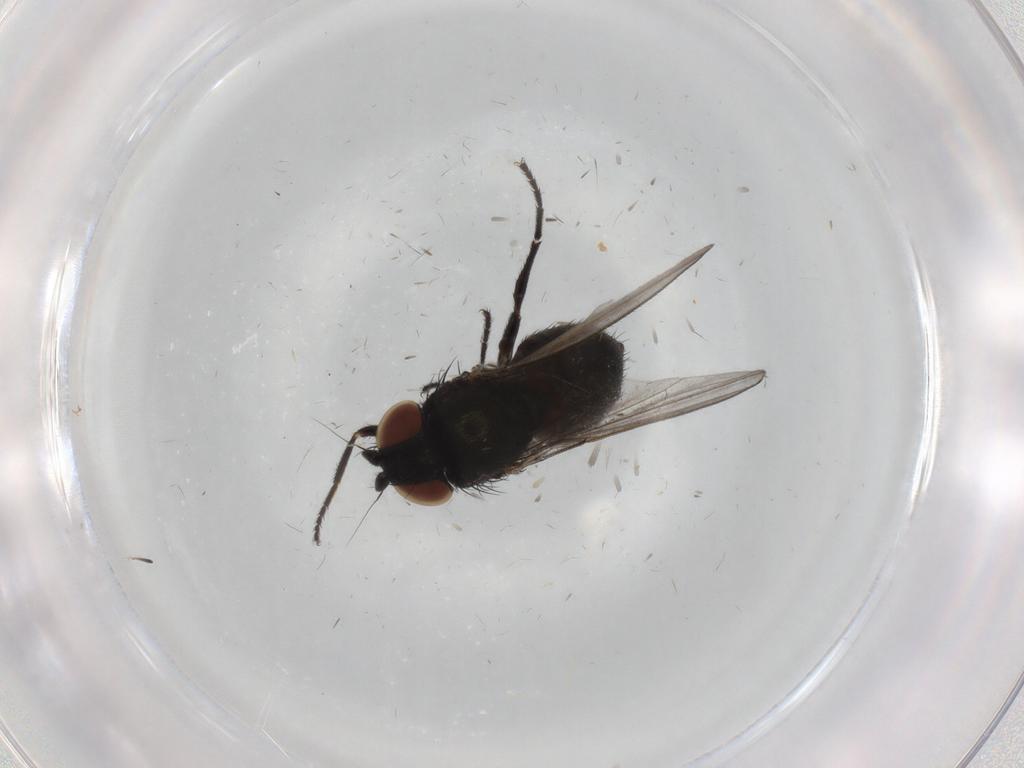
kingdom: Animalia
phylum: Arthropoda
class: Insecta
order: Diptera
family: Milichiidae
